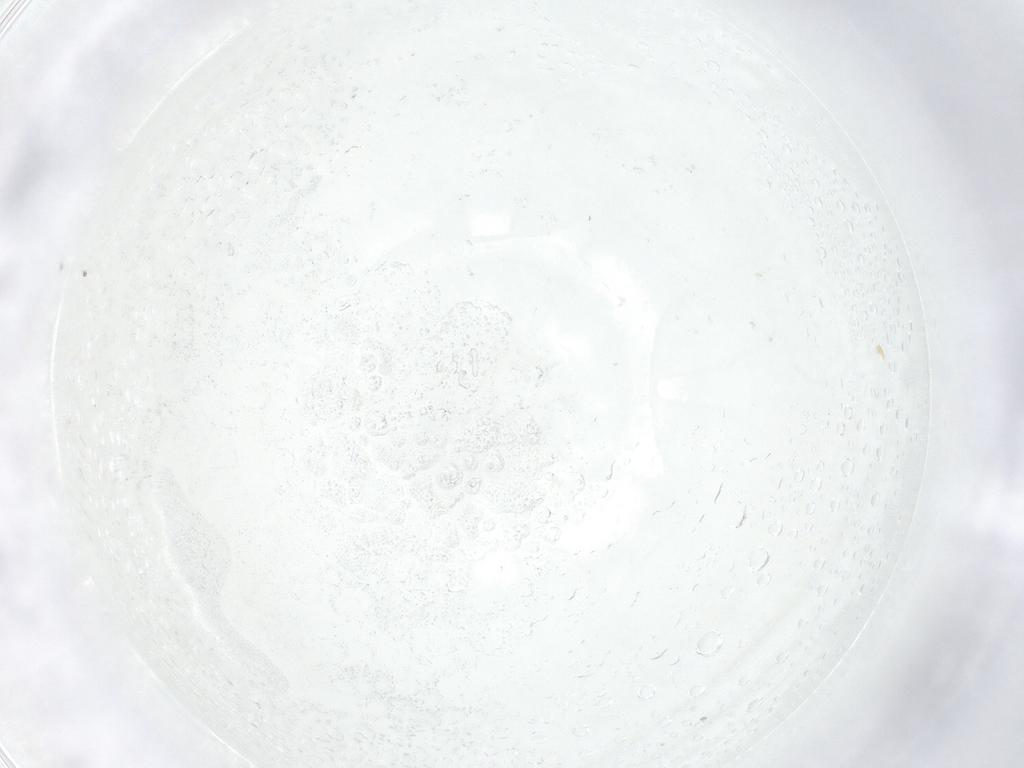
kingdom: Animalia
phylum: Arthropoda
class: Insecta
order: Diptera
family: Cecidomyiidae
